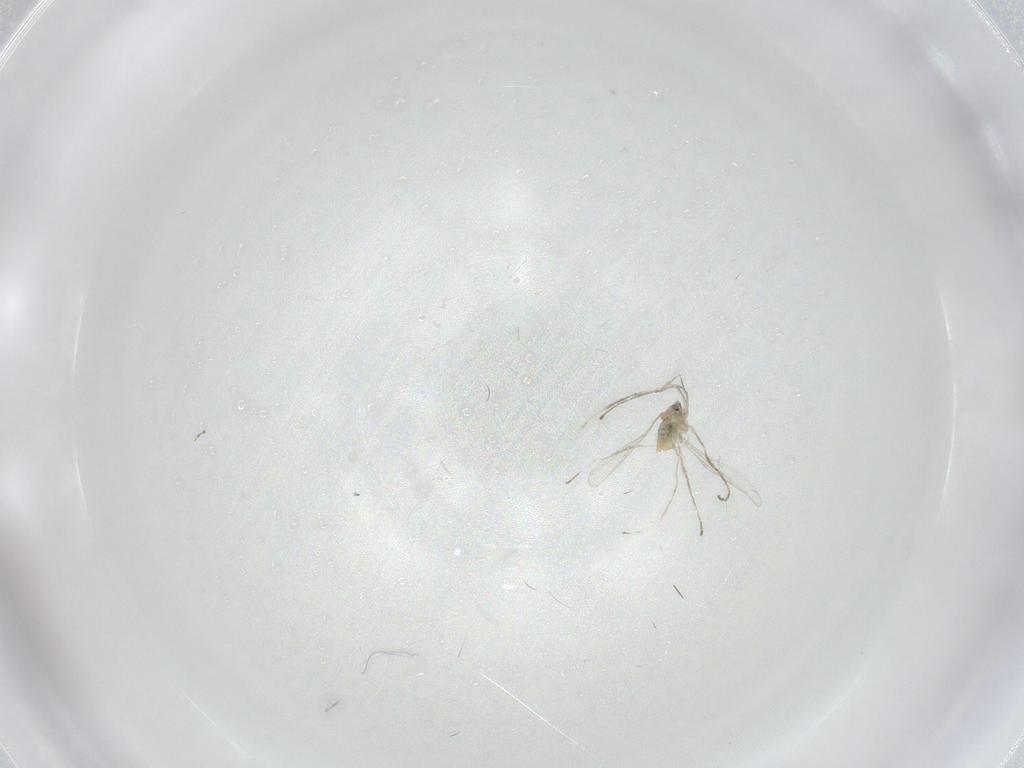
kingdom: Animalia
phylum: Arthropoda
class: Insecta
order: Diptera
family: Cecidomyiidae
